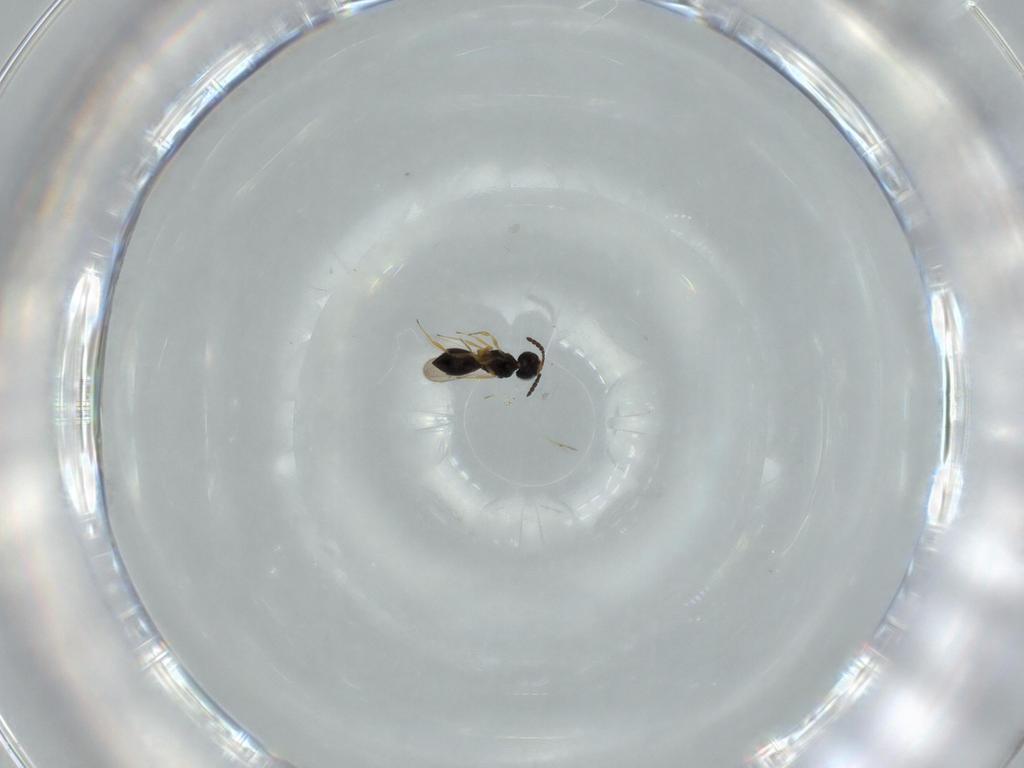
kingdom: Animalia
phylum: Arthropoda
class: Insecta
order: Hymenoptera
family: Scelionidae
